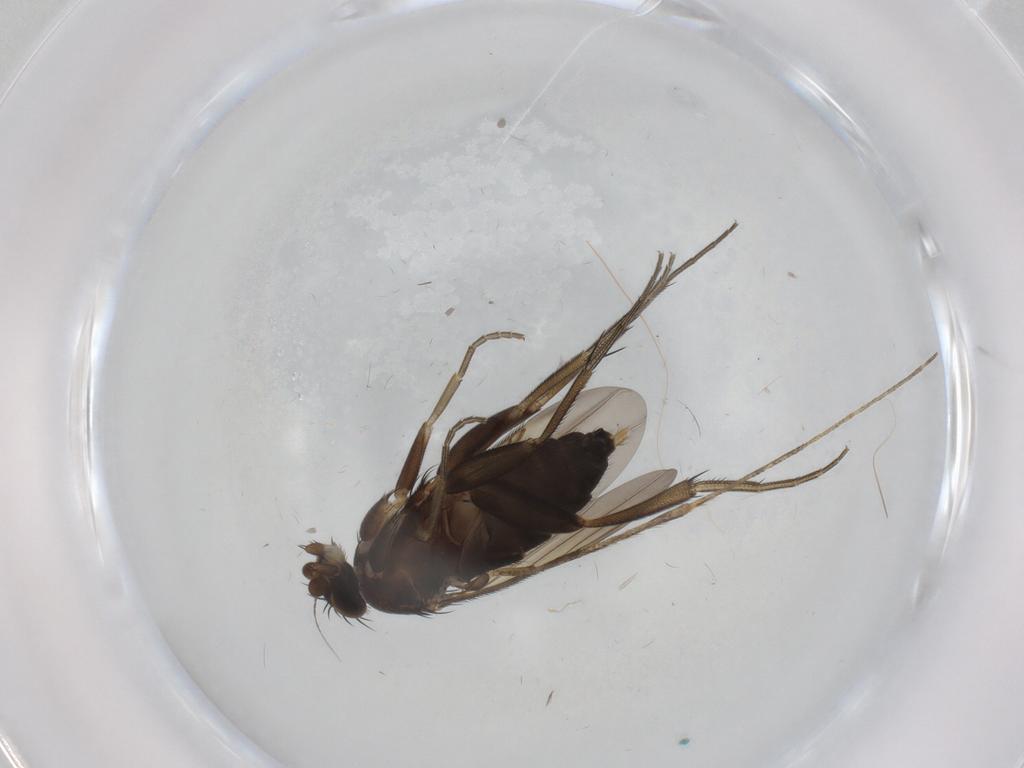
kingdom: Animalia
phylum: Arthropoda
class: Insecta
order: Diptera
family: Phoridae
